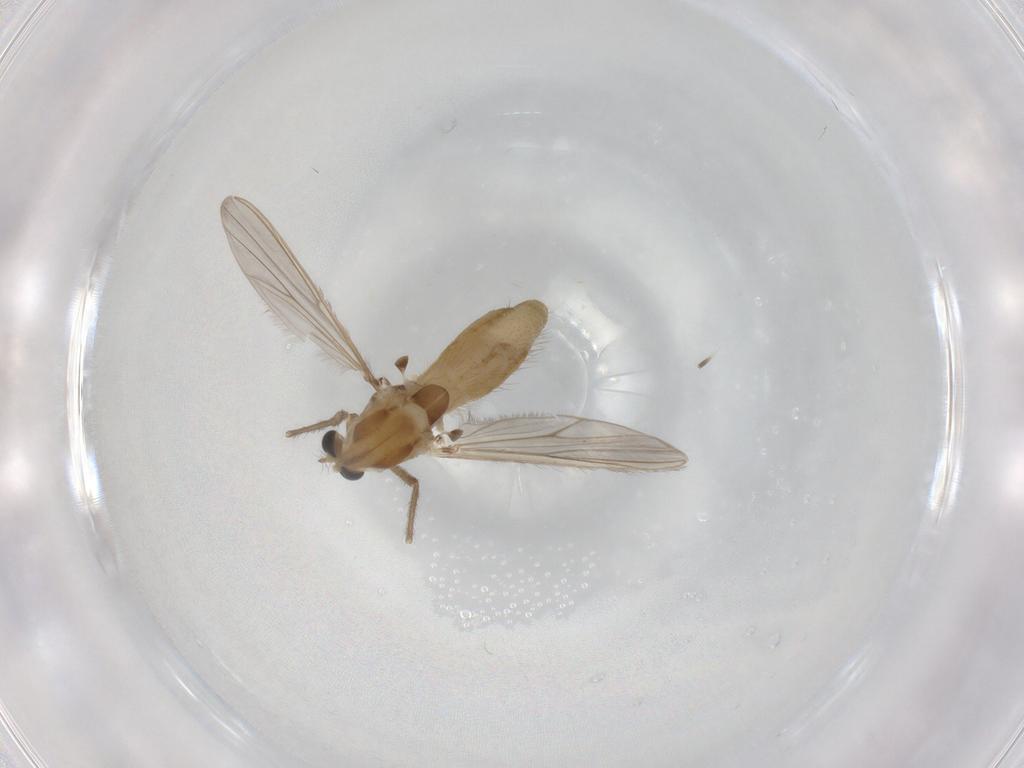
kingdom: Animalia
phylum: Arthropoda
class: Insecta
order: Diptera
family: Chironomidae
